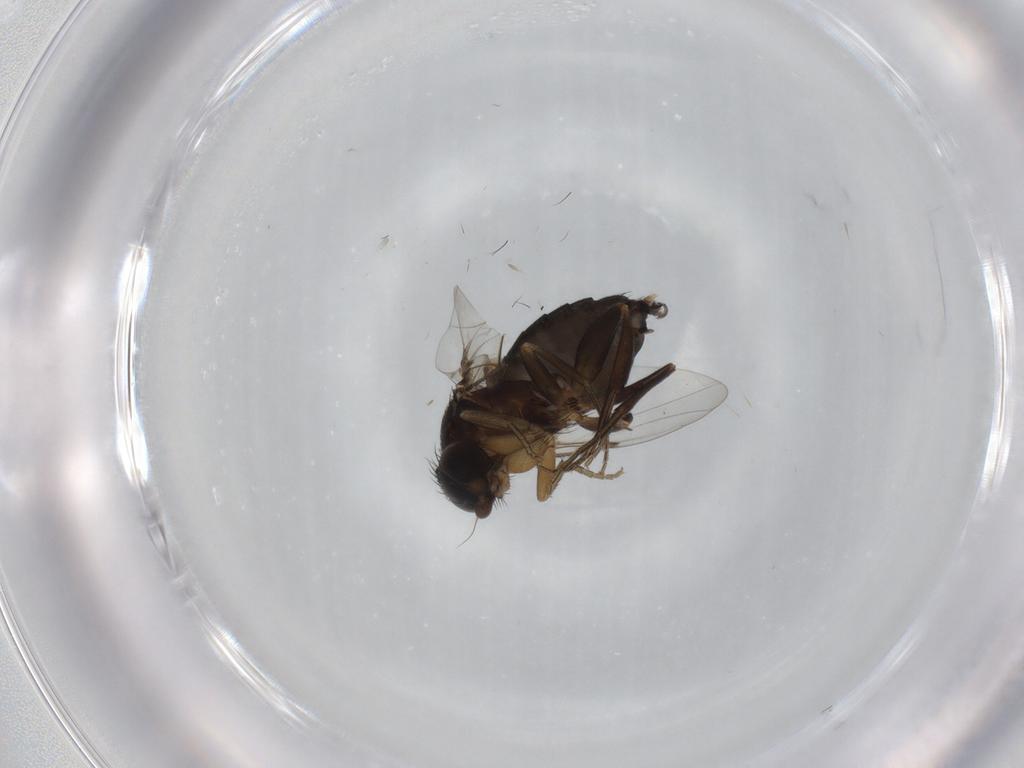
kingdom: Animalia
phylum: Arthropoda
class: Insecta
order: Diptera
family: Phoridae
